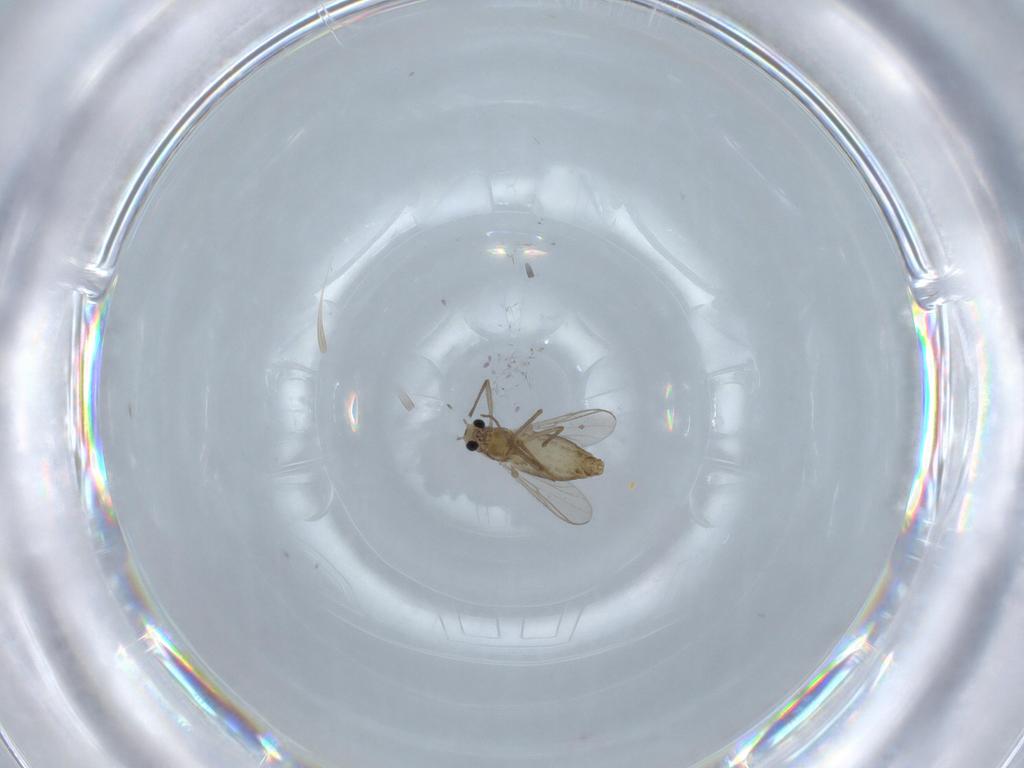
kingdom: Animalia
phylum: Arthropoda
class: Insecta
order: Diptera
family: Chironomidae
